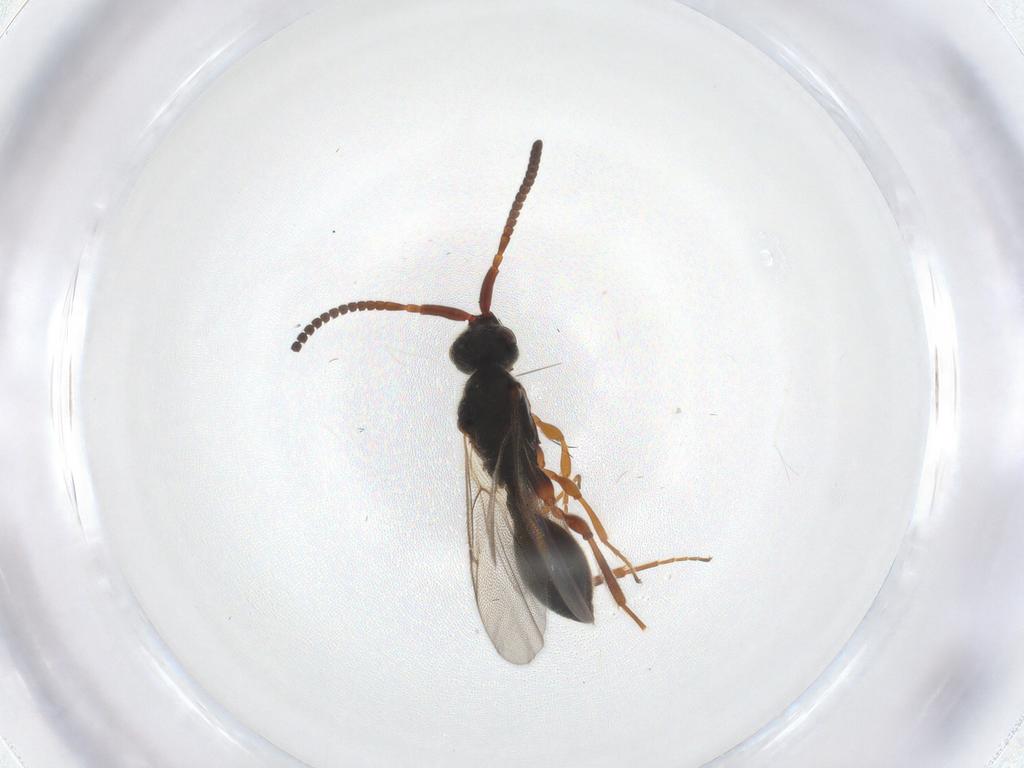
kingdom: Animalia
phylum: Arthropoda
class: Insecta
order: Hymenoptera
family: Diapriidae
